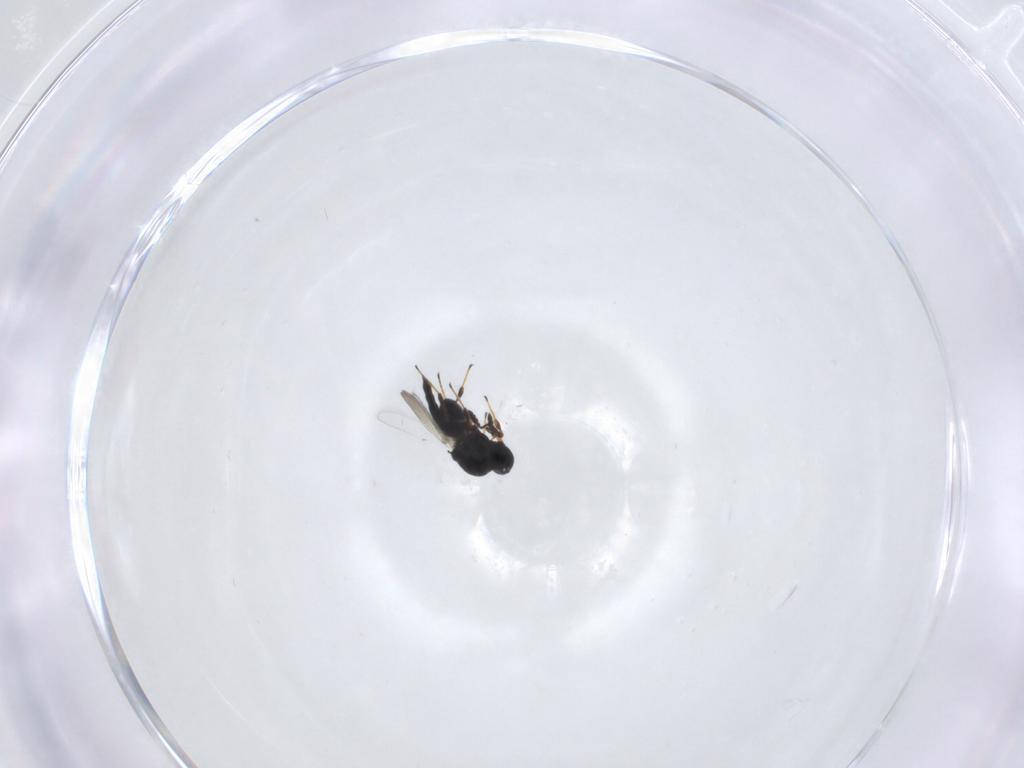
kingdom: Animalia
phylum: Arthropoda
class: Insecta
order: Hymenoptera
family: Platygastridae
